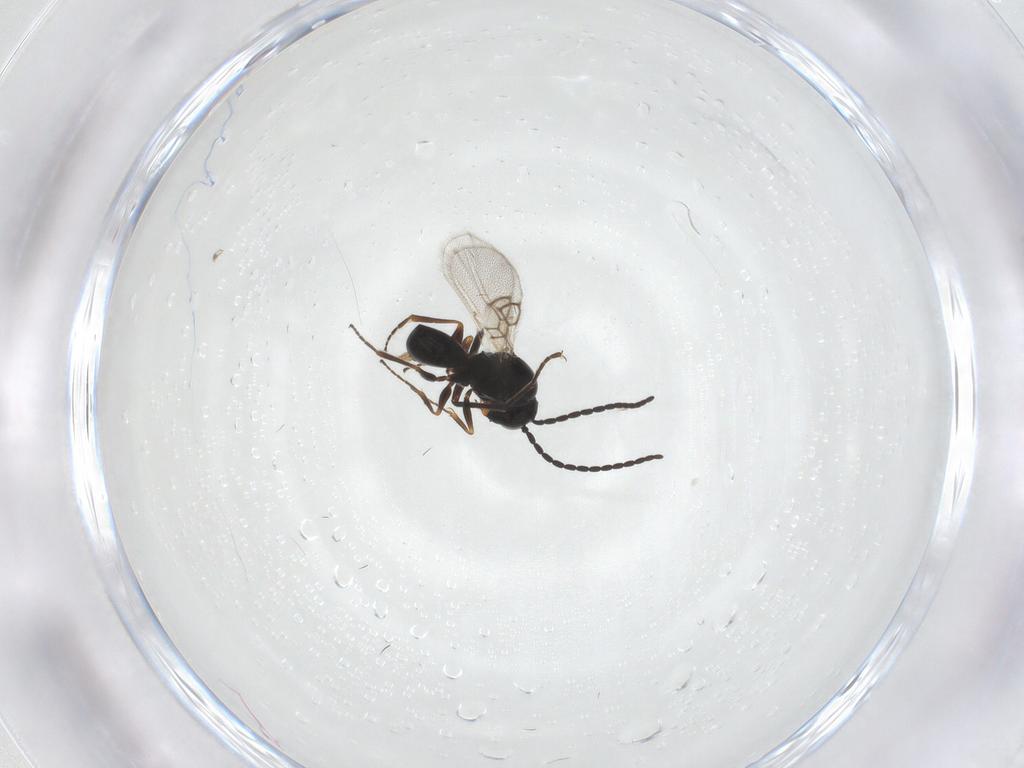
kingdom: Animalia
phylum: Arthropoda
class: Insecta
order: Hymenoptera
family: Figitidae
